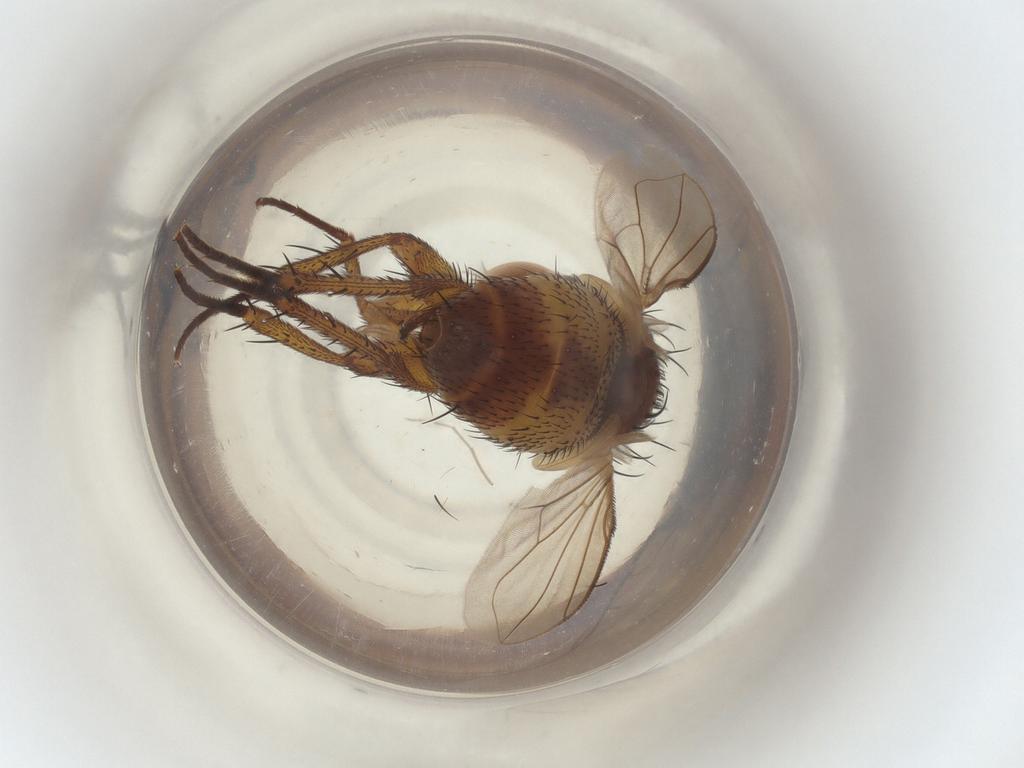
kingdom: Animalia
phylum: Arthropoda
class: Insecta
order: Diptera
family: Tachinidae
